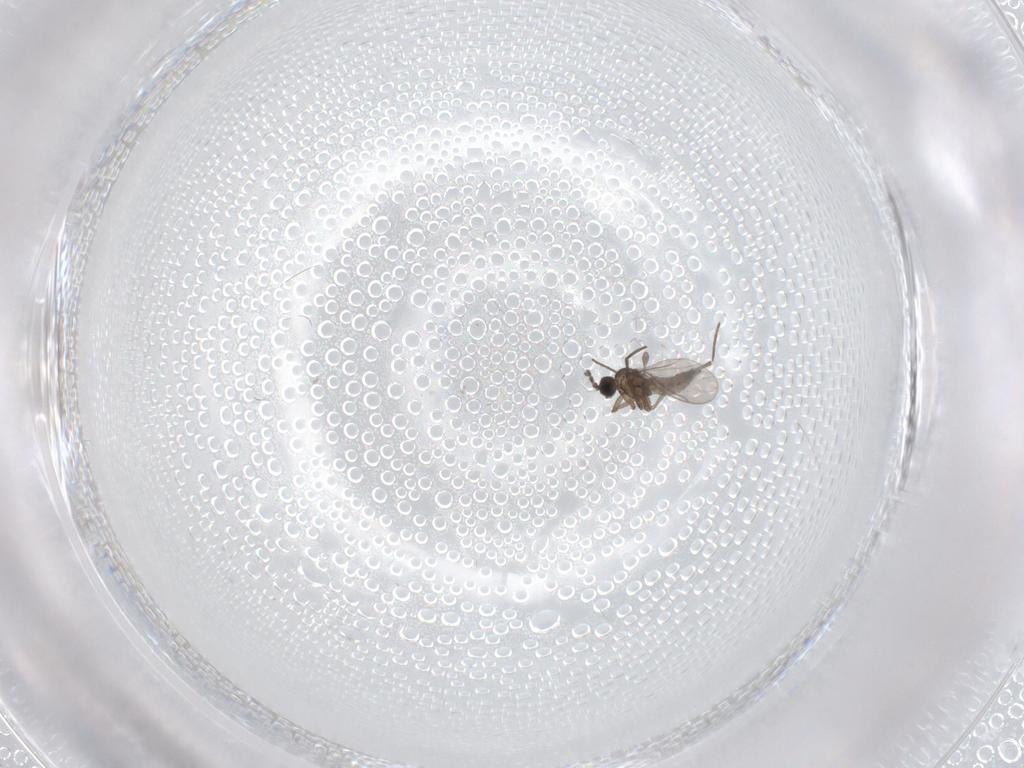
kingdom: Animalia
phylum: Arthropoda
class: Insecta
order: Diptera
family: Sciaridae
